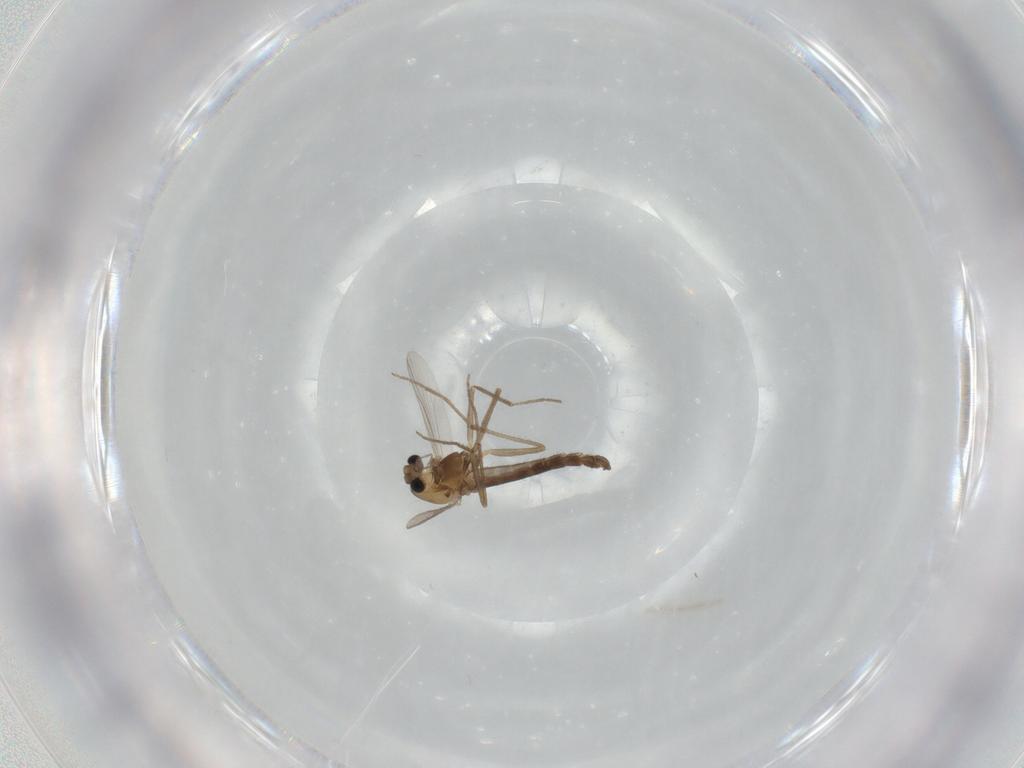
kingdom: Animalia
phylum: Arthropoda
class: Insecta
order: Diptera
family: Chironomidae
